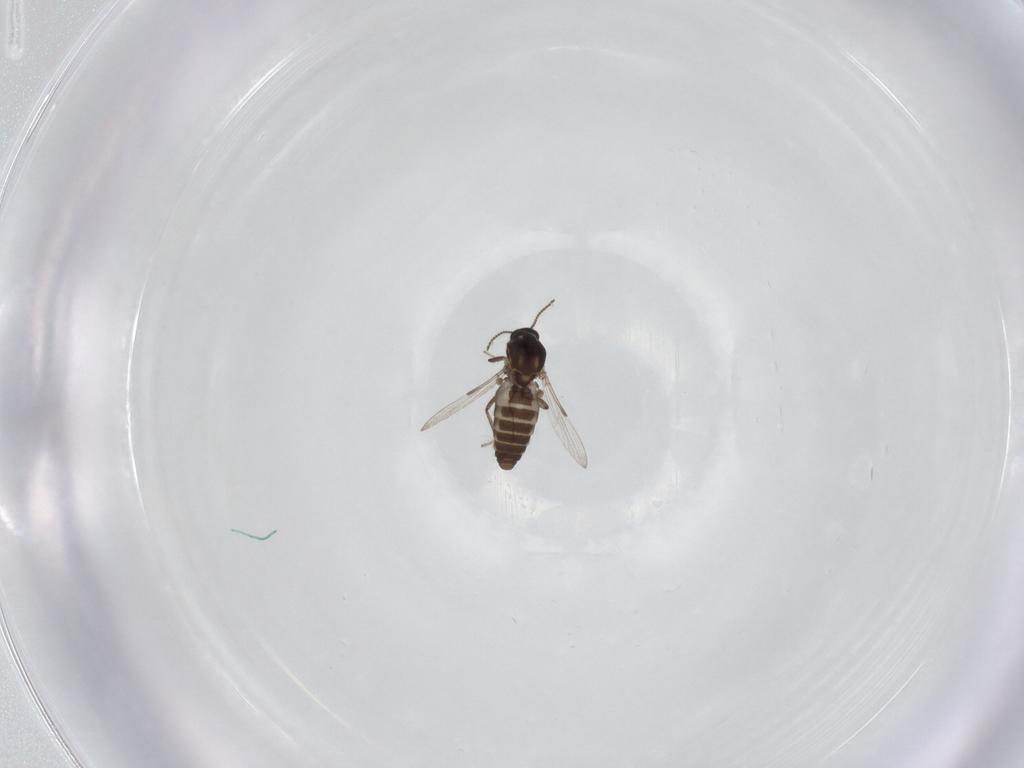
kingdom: Animalia
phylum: Arthropoda
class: Insecta
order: Diptera
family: Ceratopogonidae
